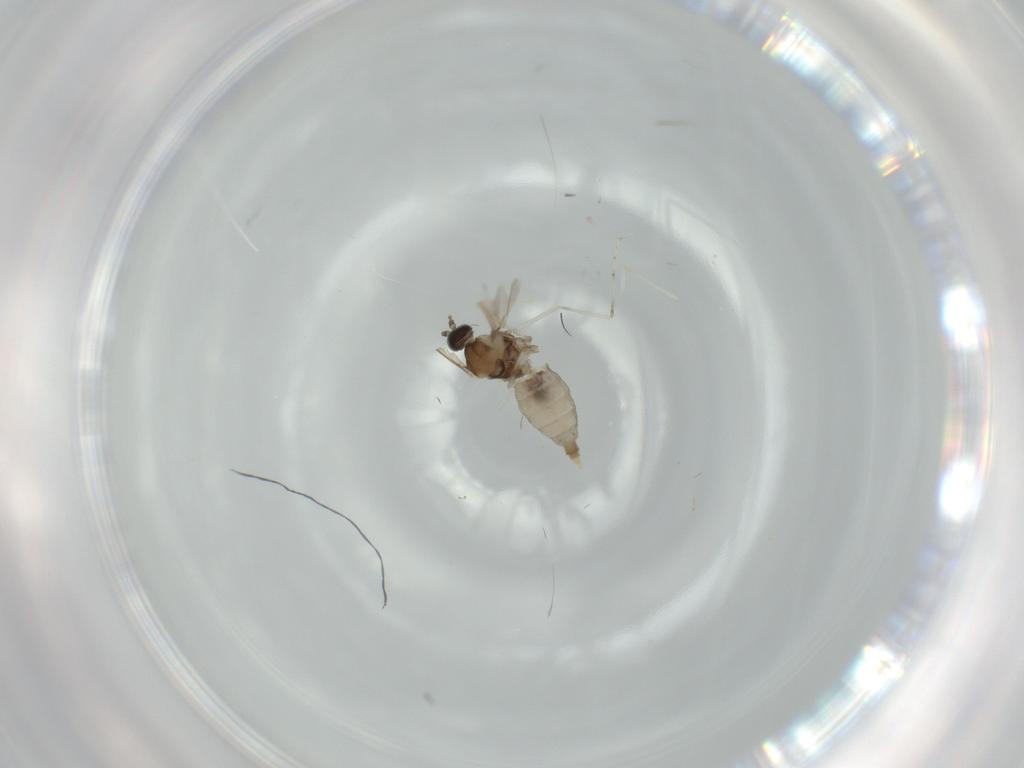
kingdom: Animalia
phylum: Arthropoda
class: Insecta
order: Diptera
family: Sciaridae
